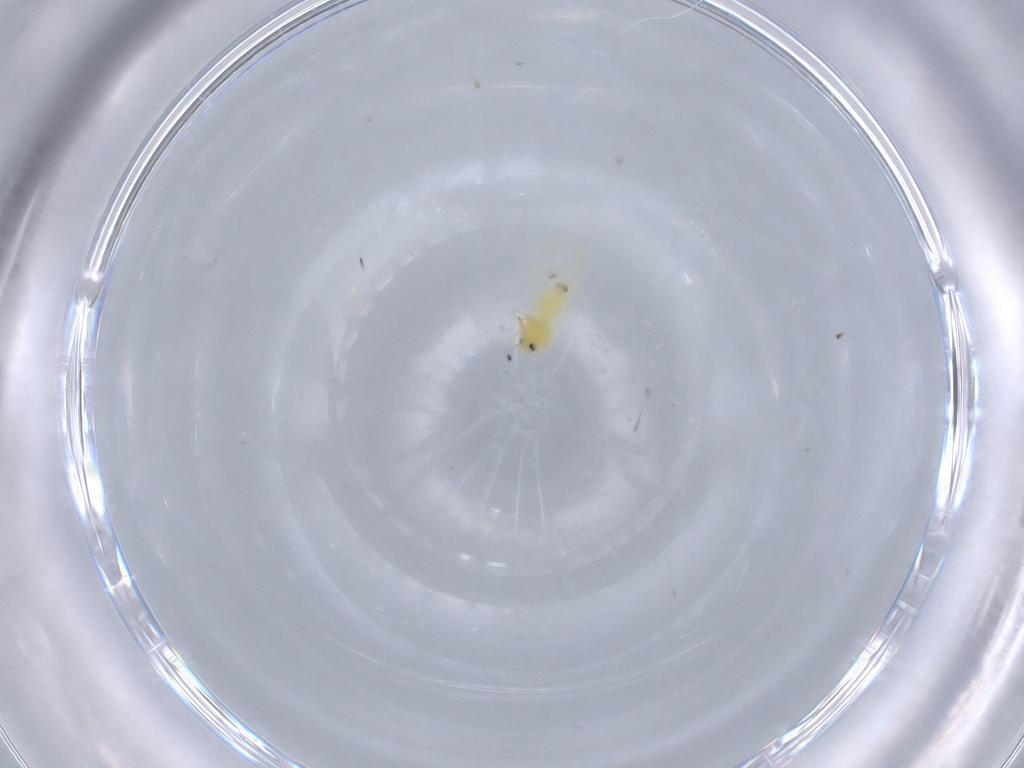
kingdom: Animalia
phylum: Arthropoda
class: Insecta
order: Hemiptera
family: Aleyrodidae
